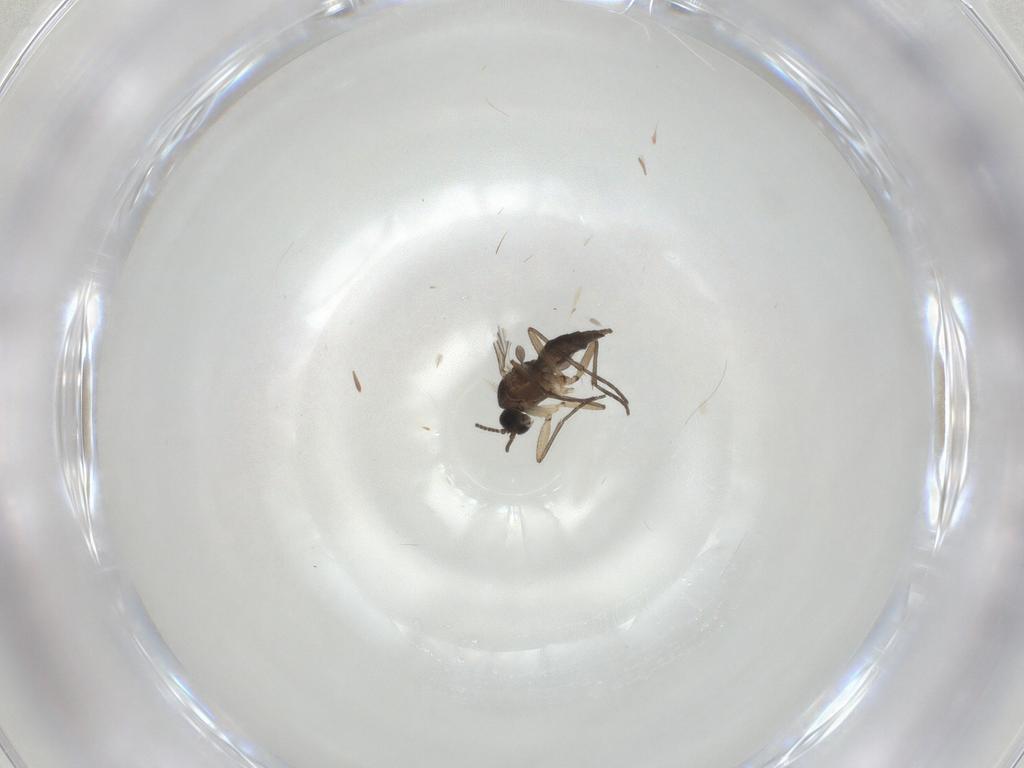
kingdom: Animalia
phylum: Arthropoda
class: Insecta
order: Diptera
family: Sciaridae
